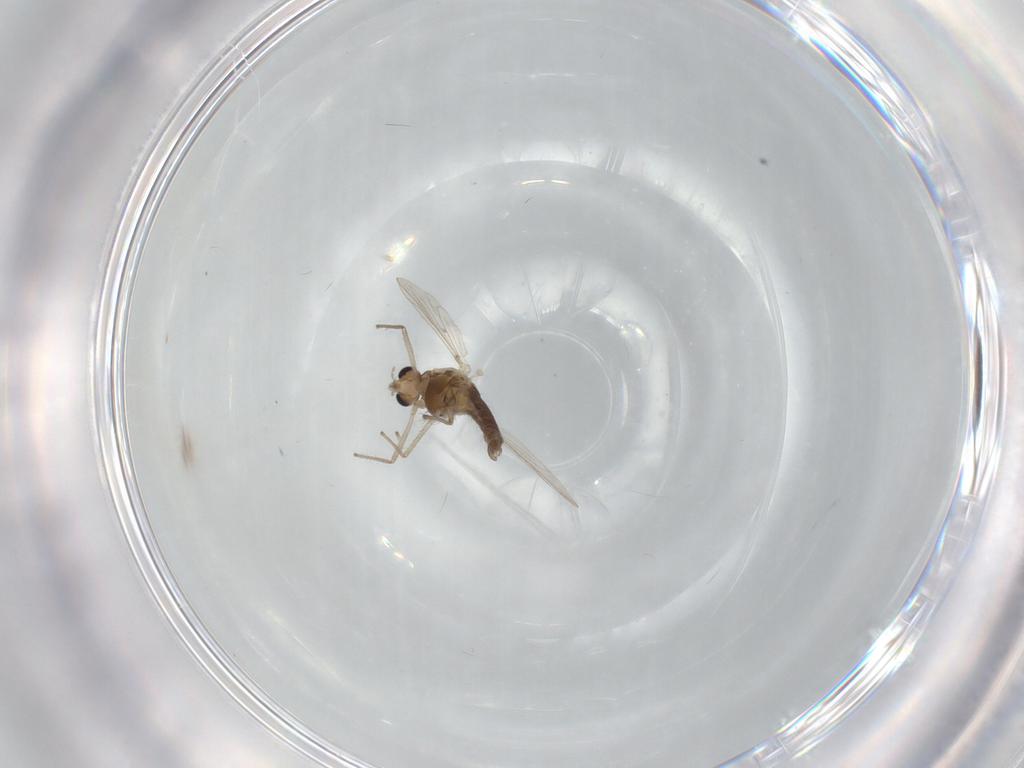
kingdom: Animalia
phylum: Arthropoda
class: Insecta
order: Diptera
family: Chironomidae
